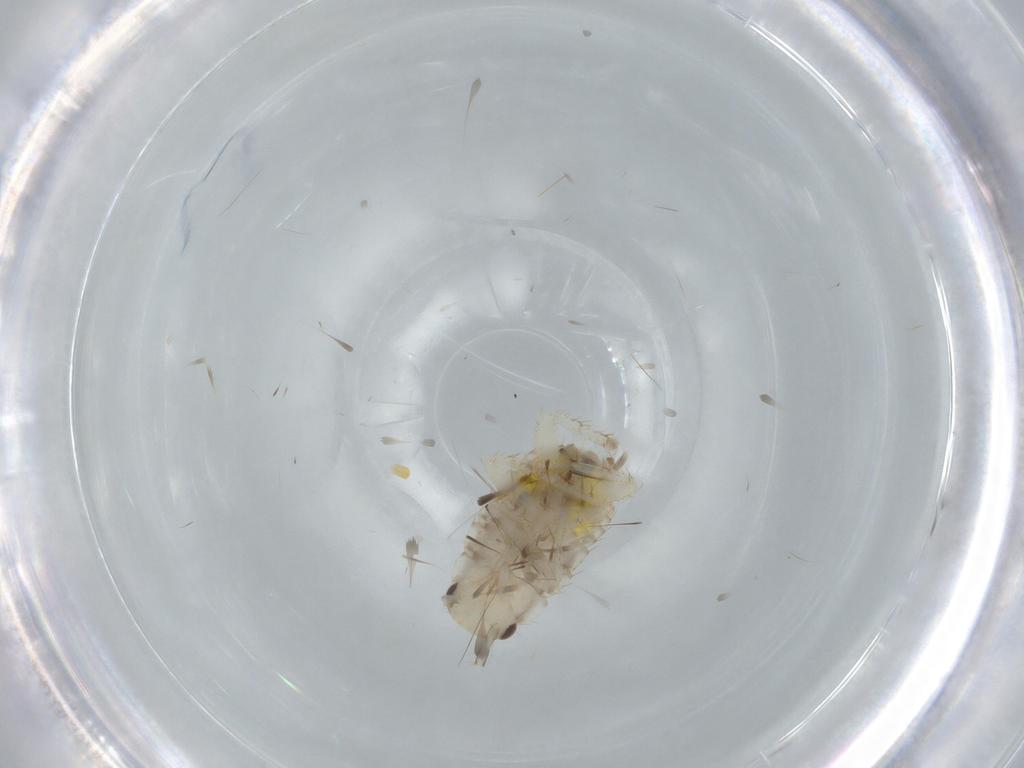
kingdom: Animalia
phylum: Arthropoda
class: Insecta
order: Blattodea
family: Ectobiidae
